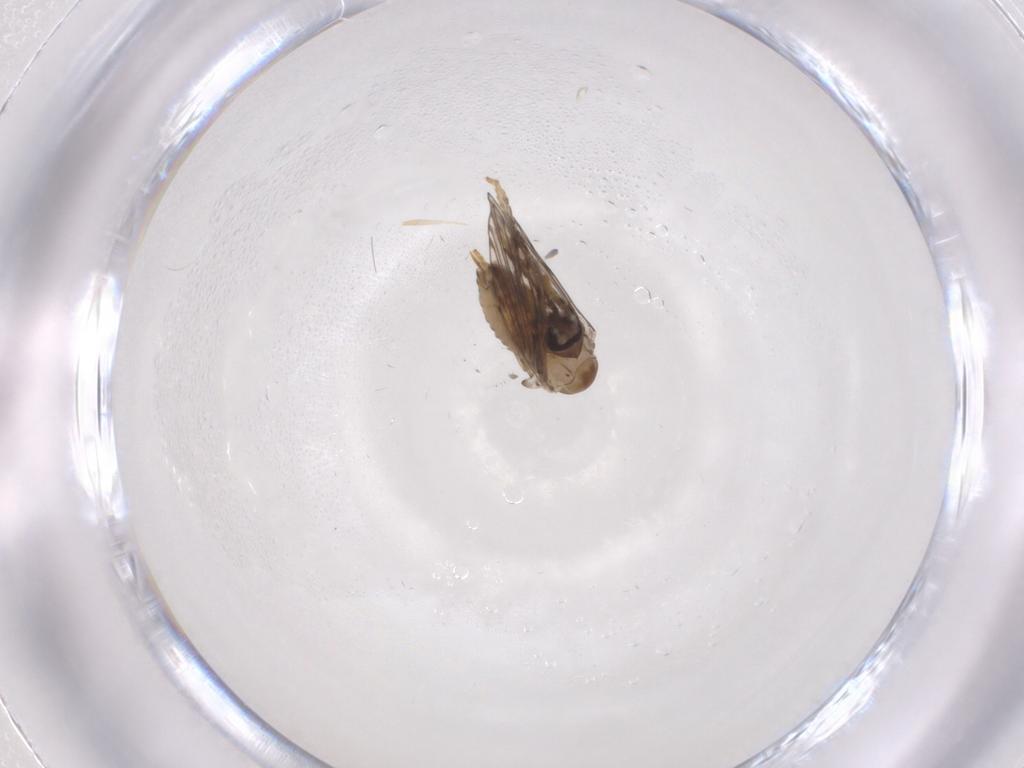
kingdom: Animalia
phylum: Arthropoda
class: Insecta
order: Diptera
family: Psychodidae
